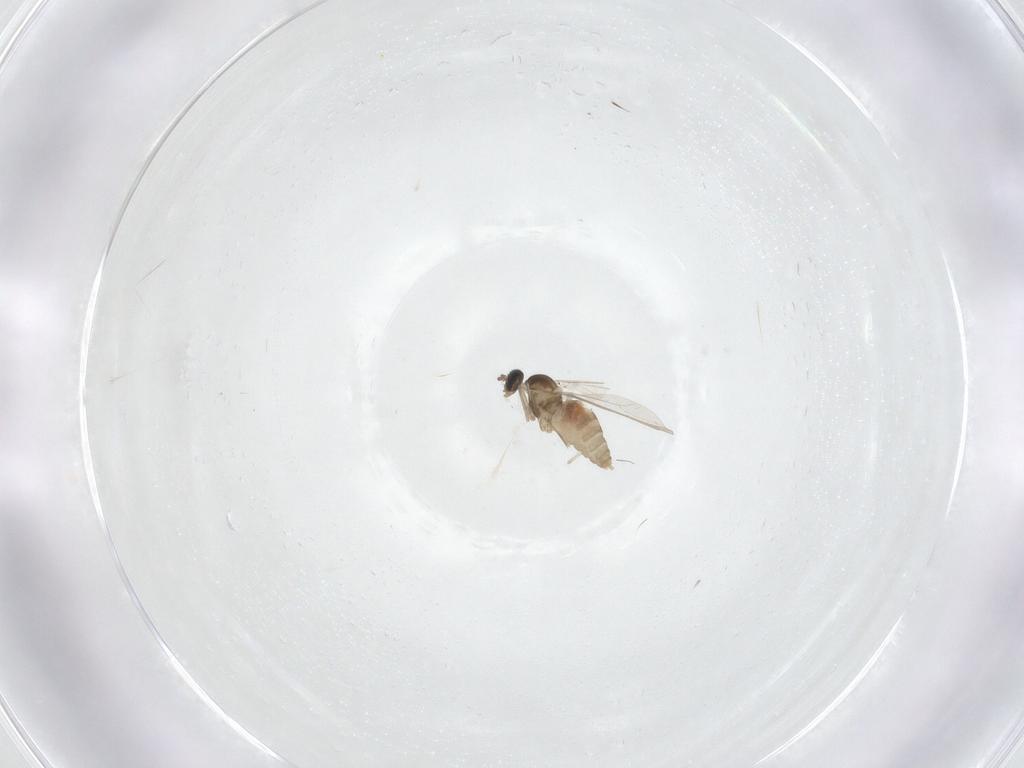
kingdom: Animalia
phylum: Arthropoda
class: Insecta
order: Diptera
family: Cecidomyiidae
